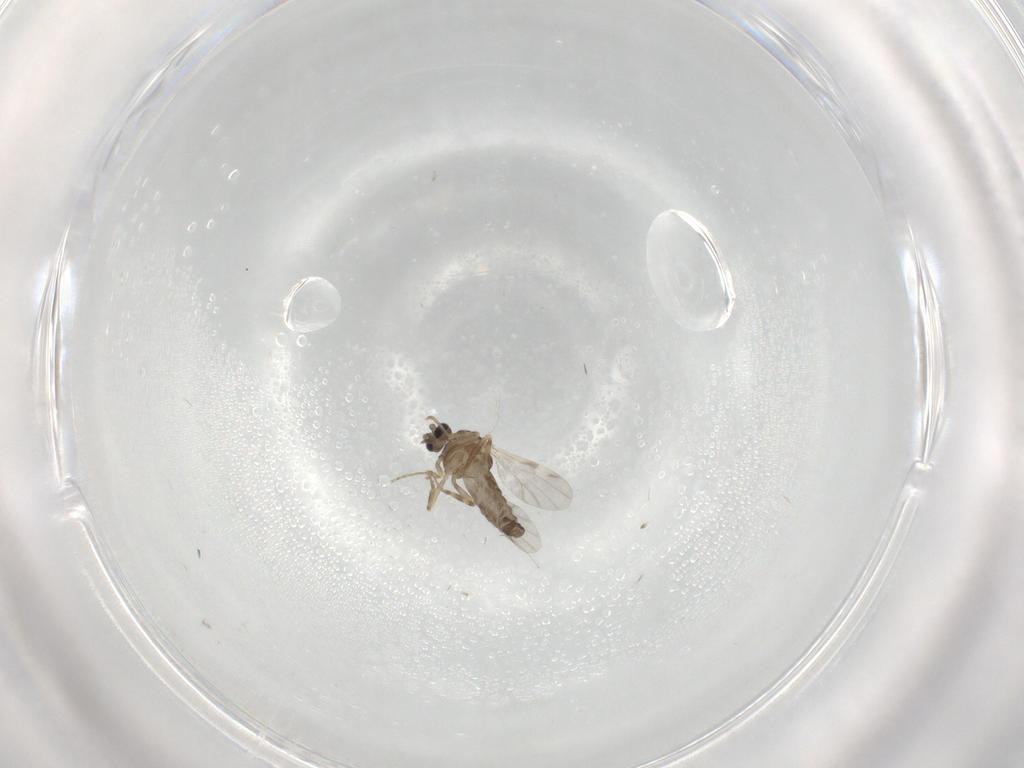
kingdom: Animalia
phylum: Arthropoda
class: Insecta
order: Diptera
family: Ceratopogonidae
